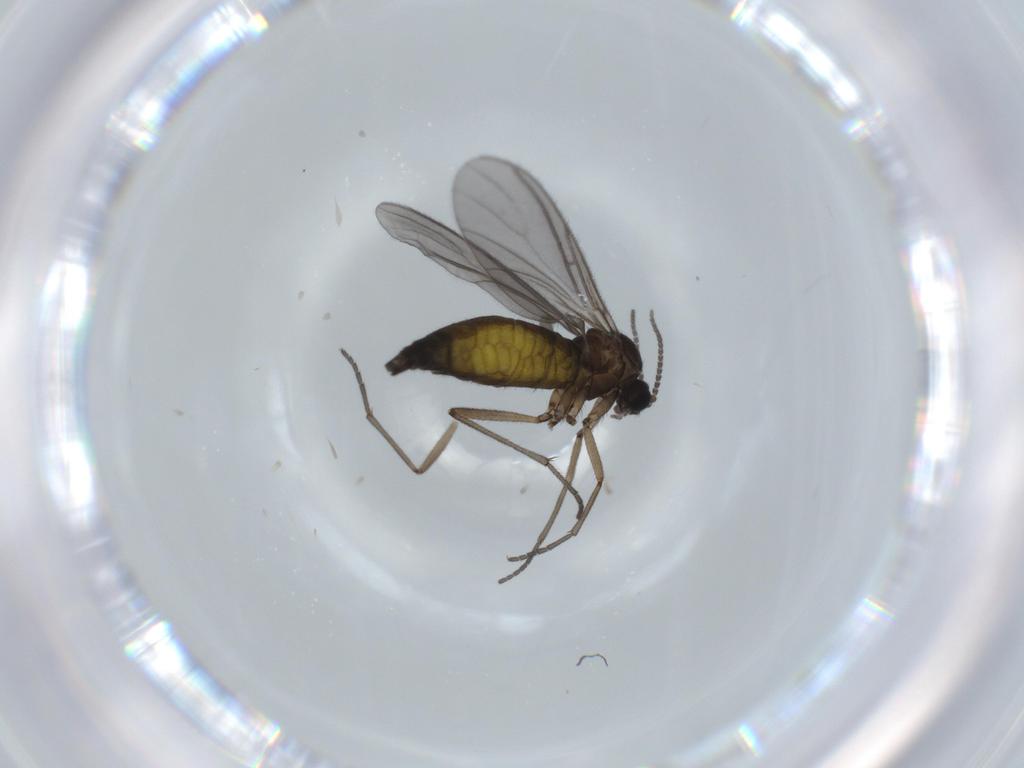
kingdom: Animalia
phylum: Arthropoda
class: Insecta
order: Diptera
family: Sciaridae
